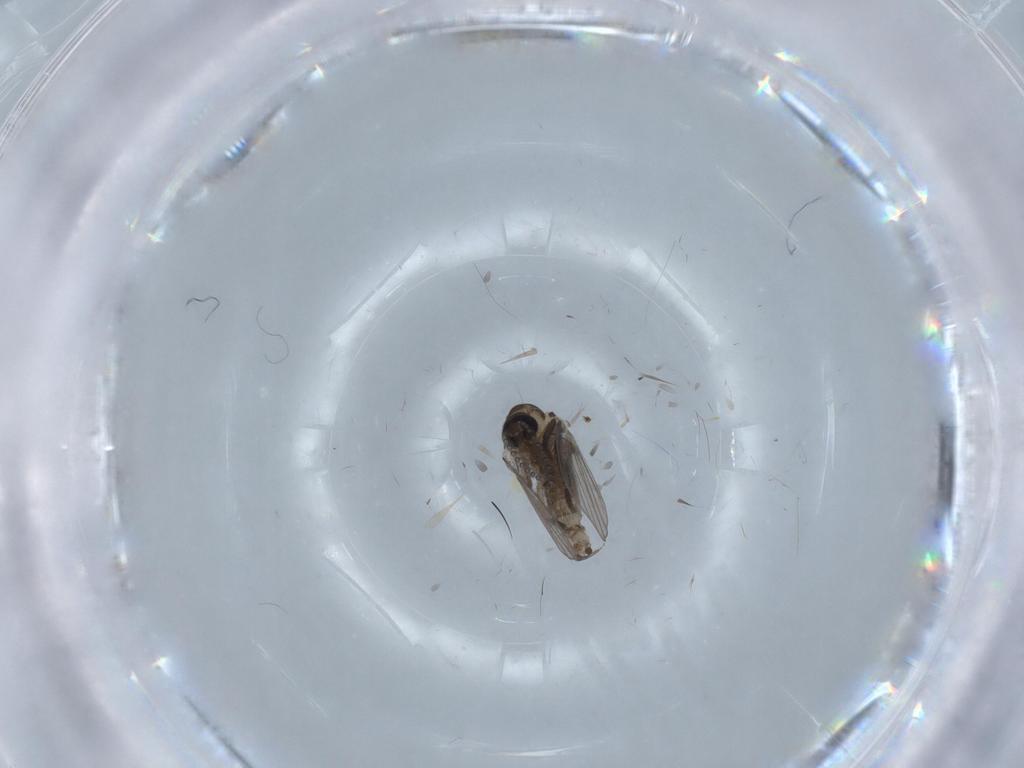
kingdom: Animalia
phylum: Arthropoda
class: Insecta
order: Diptera
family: Psychodidae
